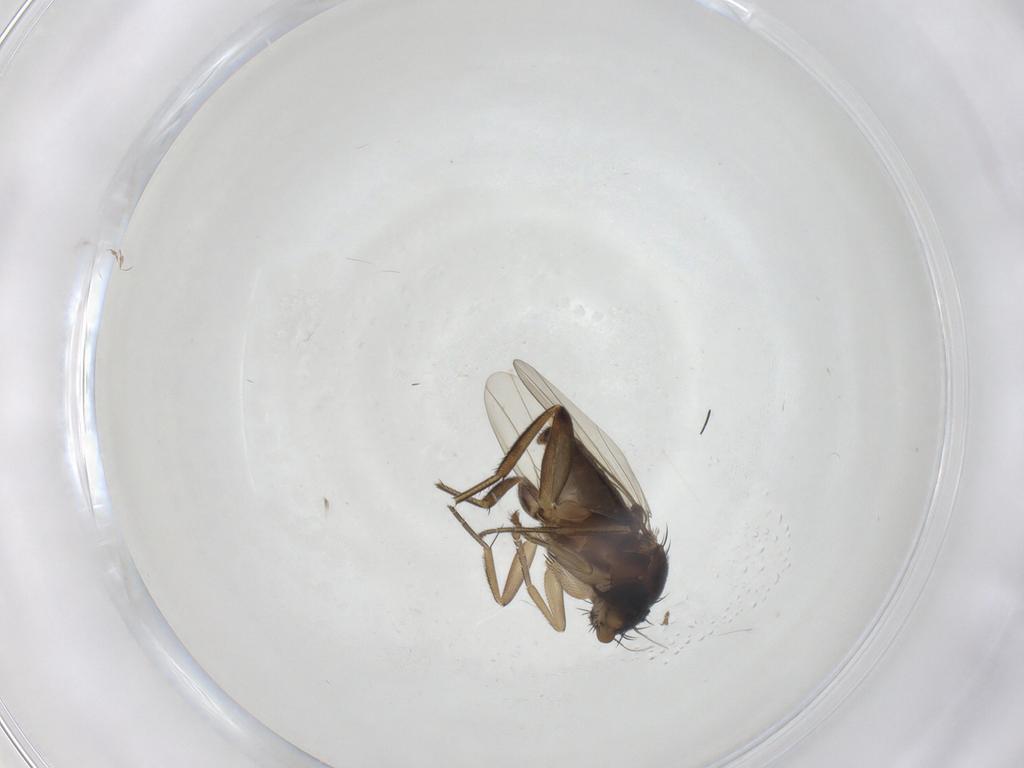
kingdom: Animalia
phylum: Arthropoda
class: Insecta
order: Diptera
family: Phoridae
